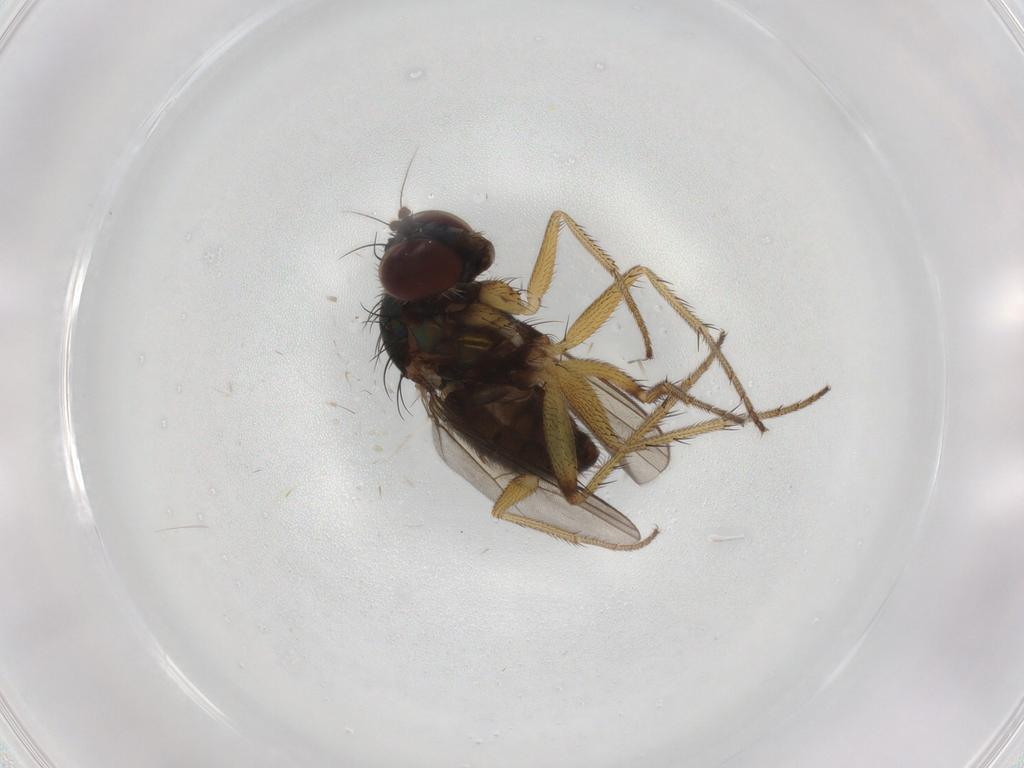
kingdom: Animalia
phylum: Arthropoda
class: Insecta
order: Diptera
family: Dolichopodidae
